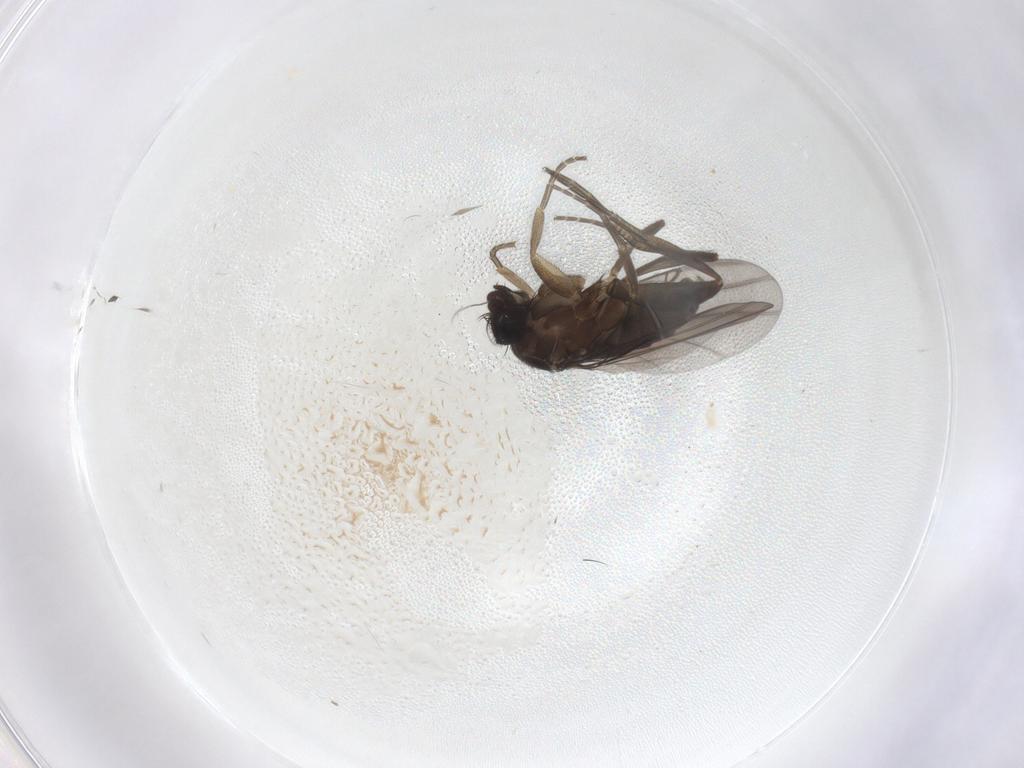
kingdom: Animalia
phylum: Arthropoda
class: Insecta
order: Diptera
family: Phoridae
